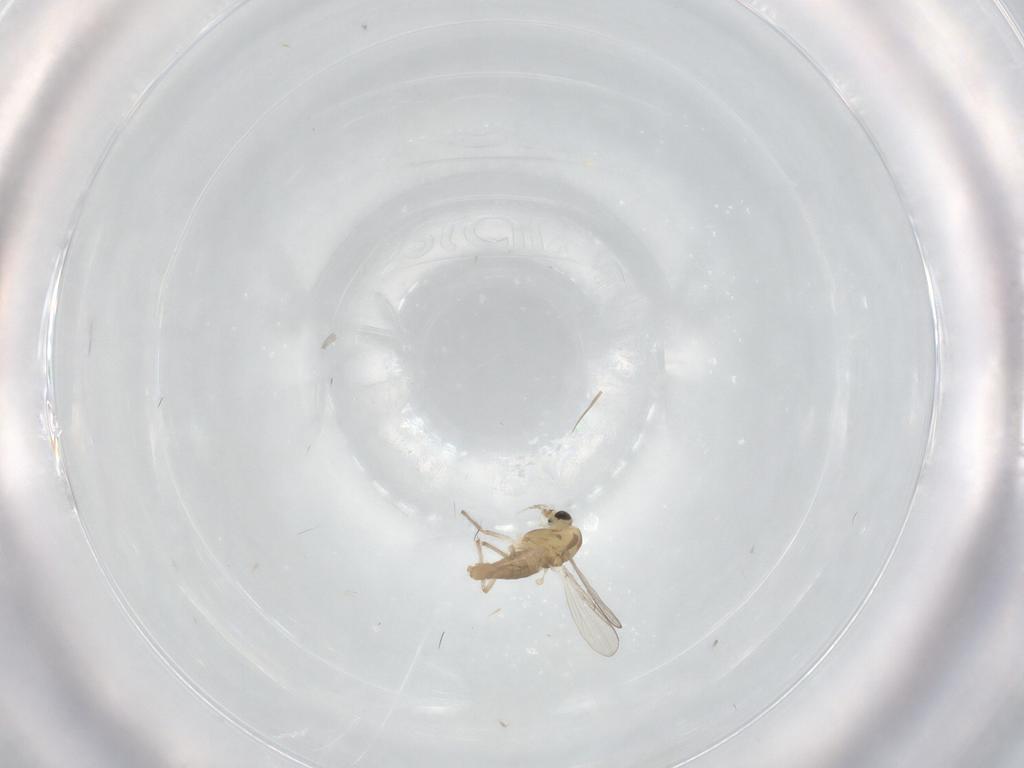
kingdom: Animalia
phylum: Arthropoda
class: Insecta
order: Diptera
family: Chironomidae
